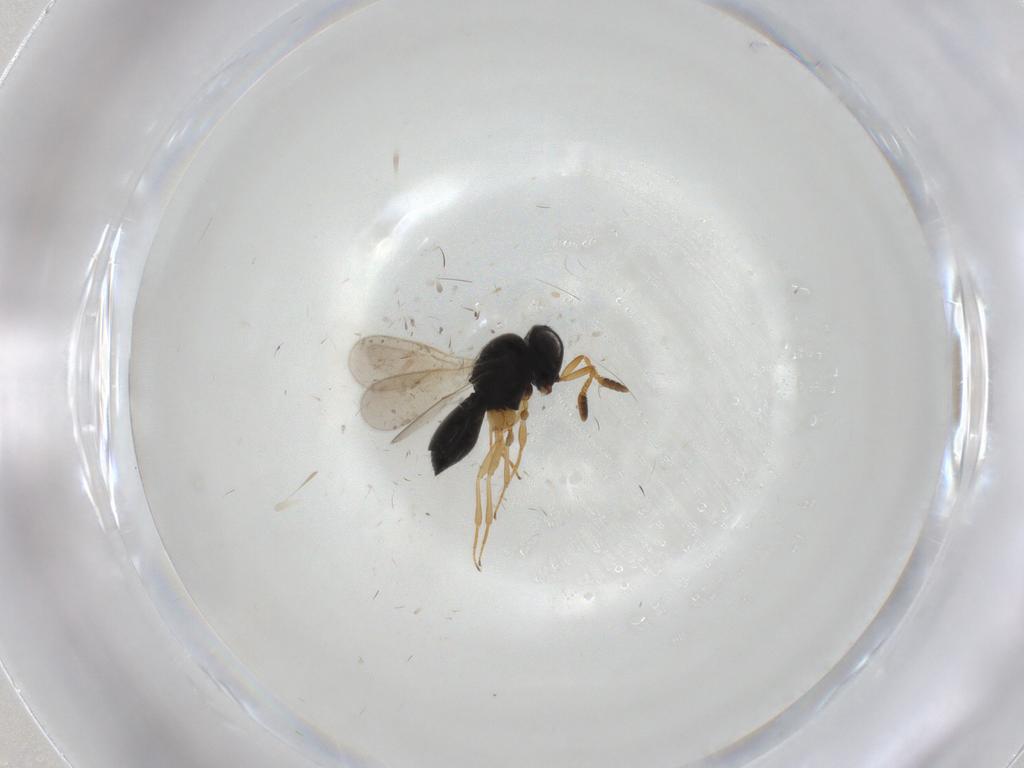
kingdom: Animalia
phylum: Arthropoda
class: Insecta
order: Hymenoptera
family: Scelionidae
